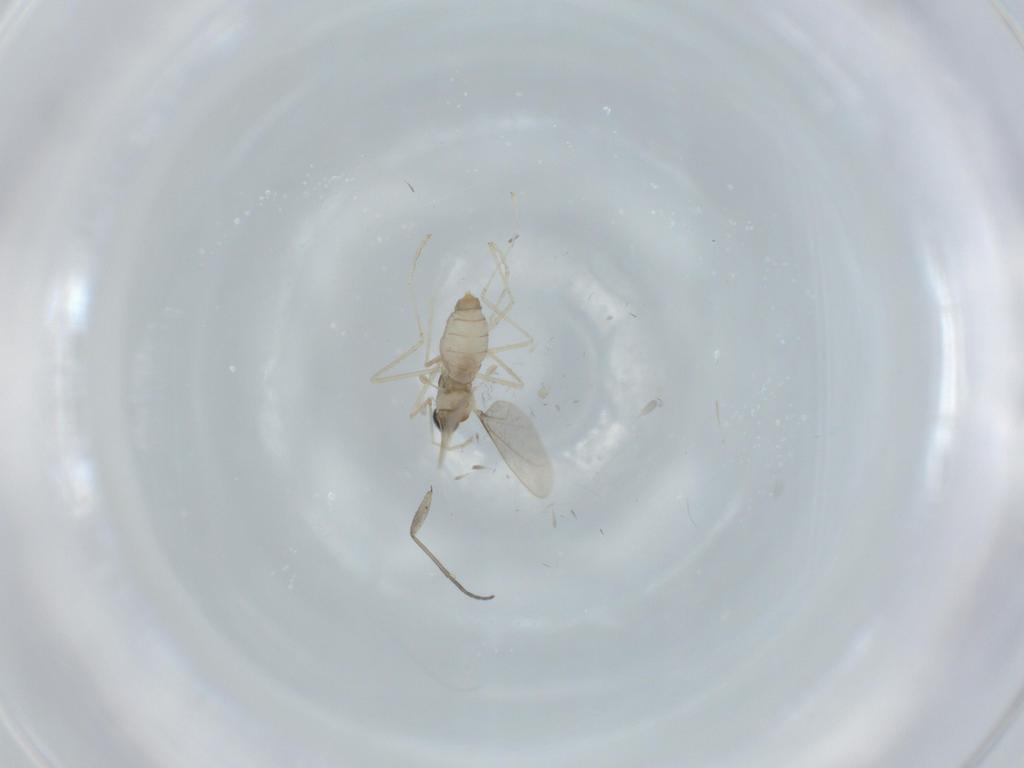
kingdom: Animalia
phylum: Arthropoda
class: Insecta
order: Diptera
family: Cecidomyiidae
